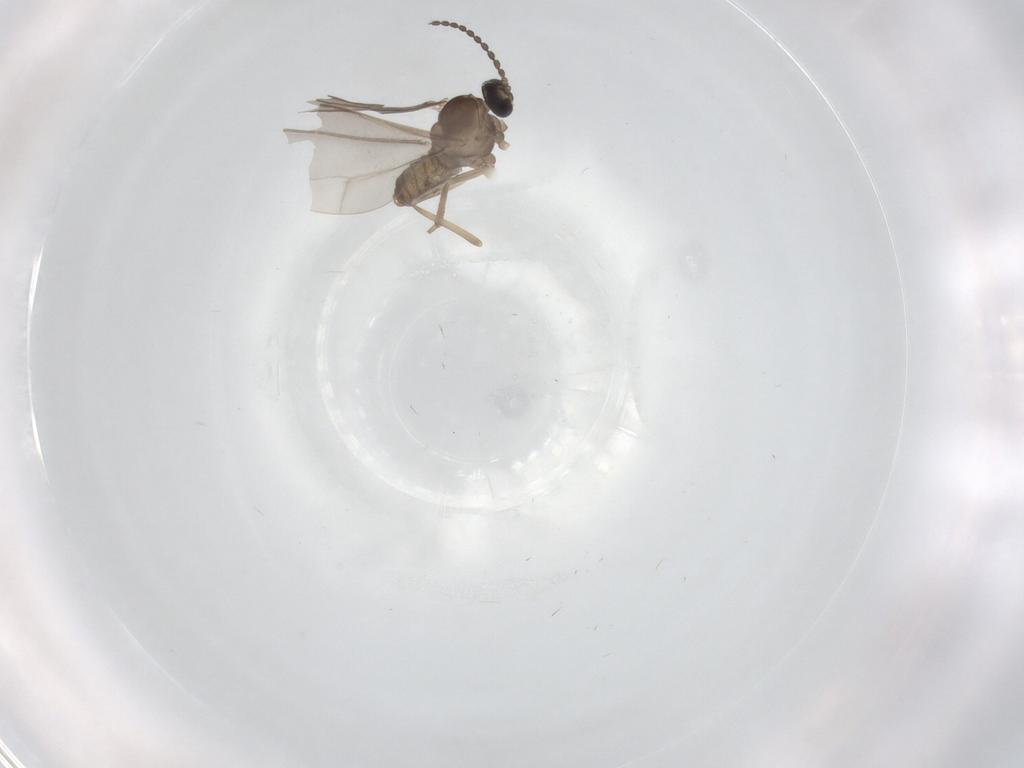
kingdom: Animalia
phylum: Arthropoda
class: Insecta
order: Diptera
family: Cecidomyiidae
